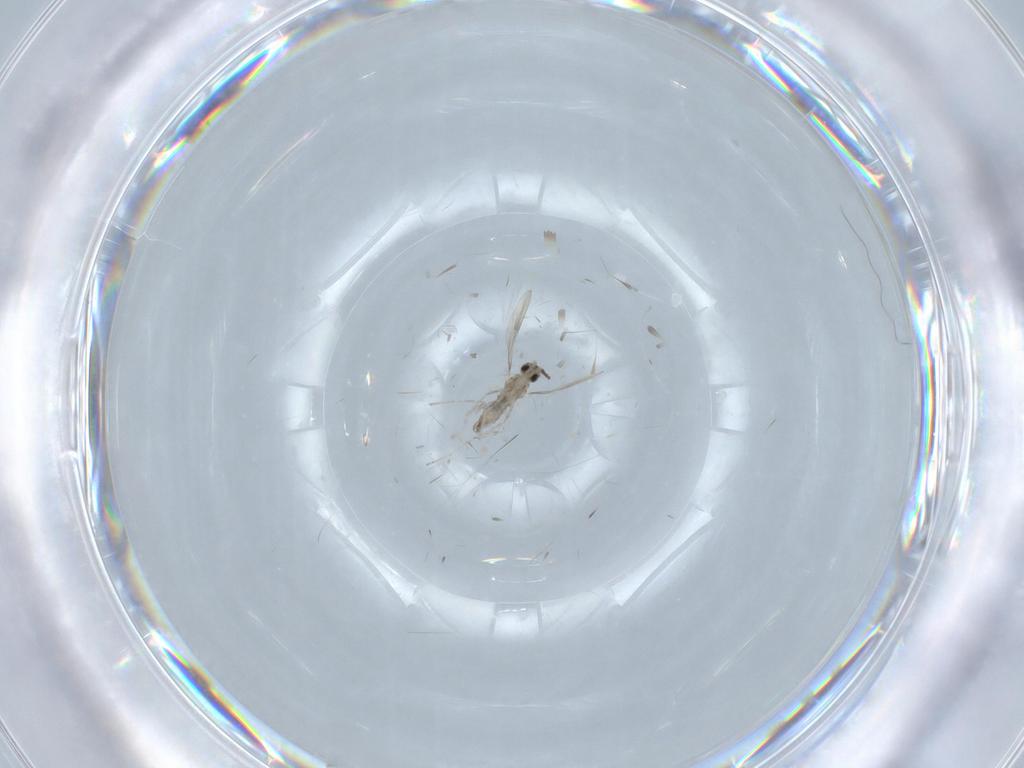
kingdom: Animalia
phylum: Arthropoda
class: Insecta
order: Diptera
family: Cecidomyiidae
